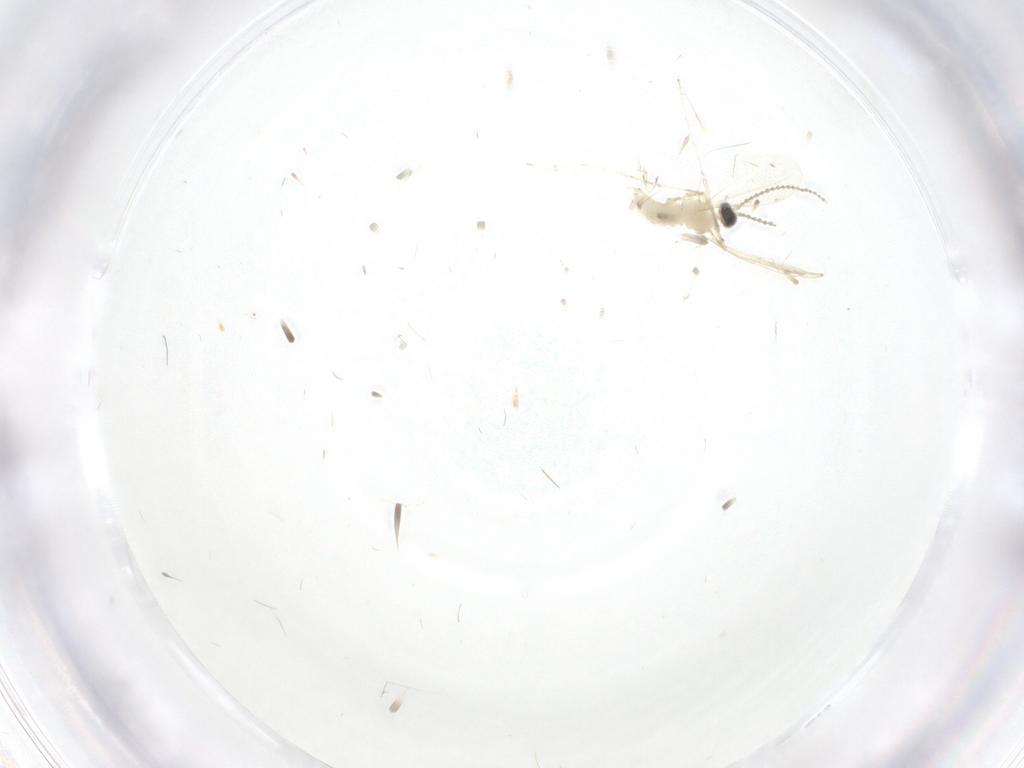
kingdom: Animalia
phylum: Arthropoda
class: Insecta
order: Diptera
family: Cecidomyiidae
